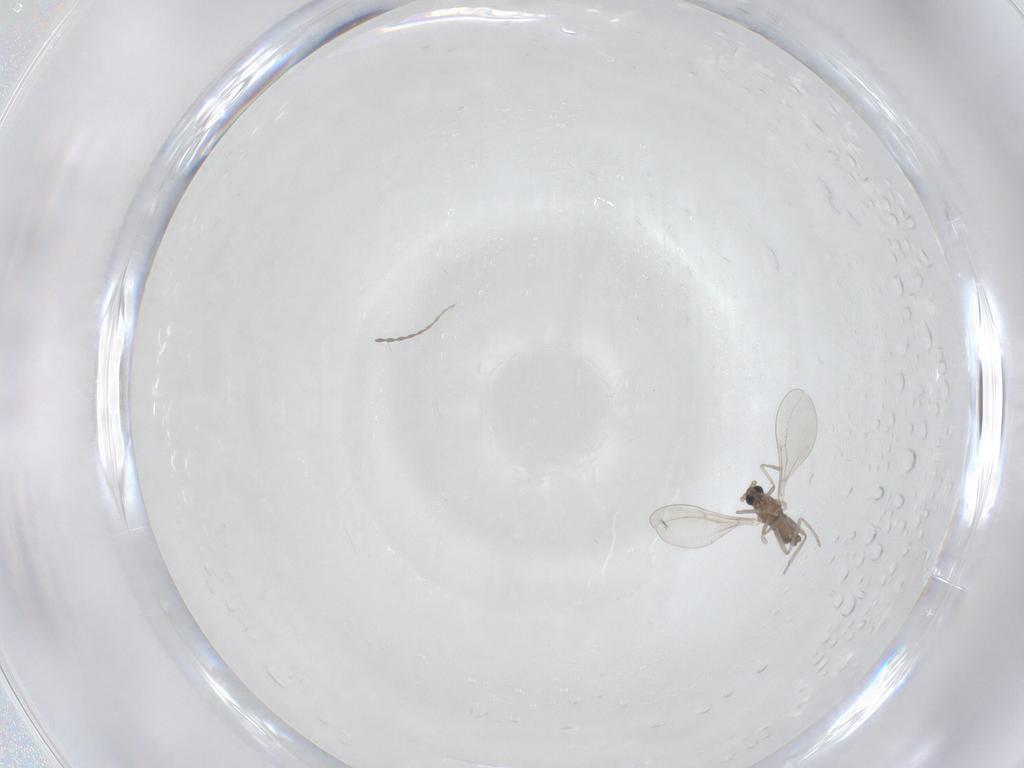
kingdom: Animalia
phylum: Arthropoda
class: Insecta
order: Diptera
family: Cecidomyiidae
